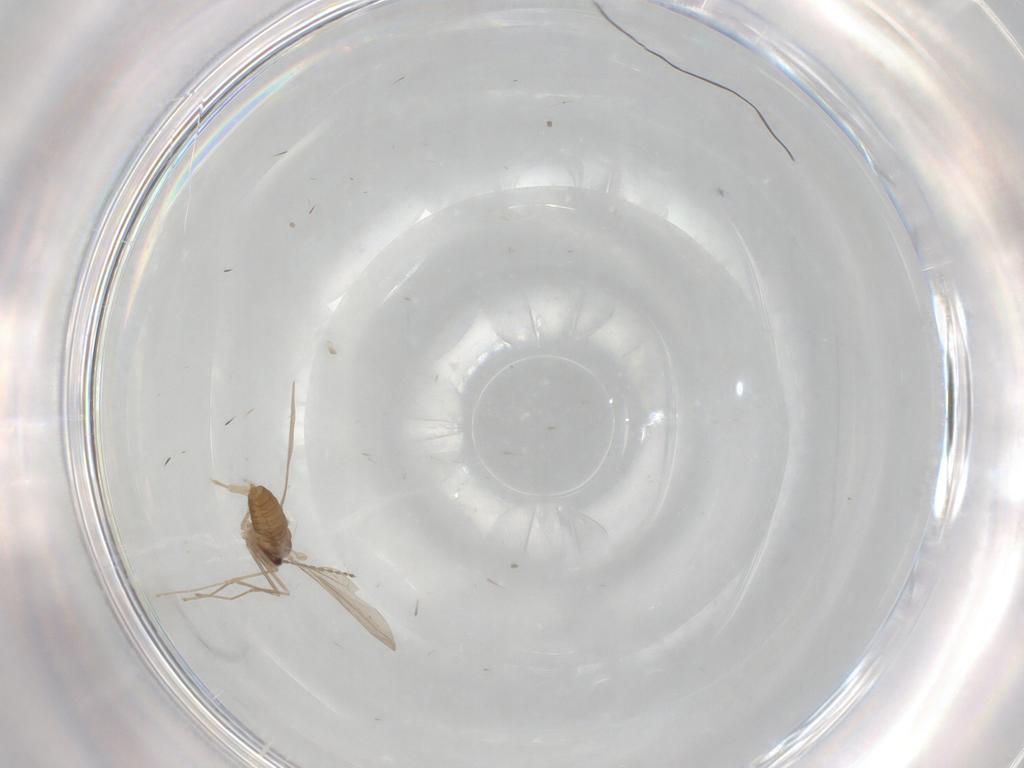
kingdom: Animalia
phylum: Arthropoda
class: Insecta
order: Diptera
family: Cecidomyiidae
